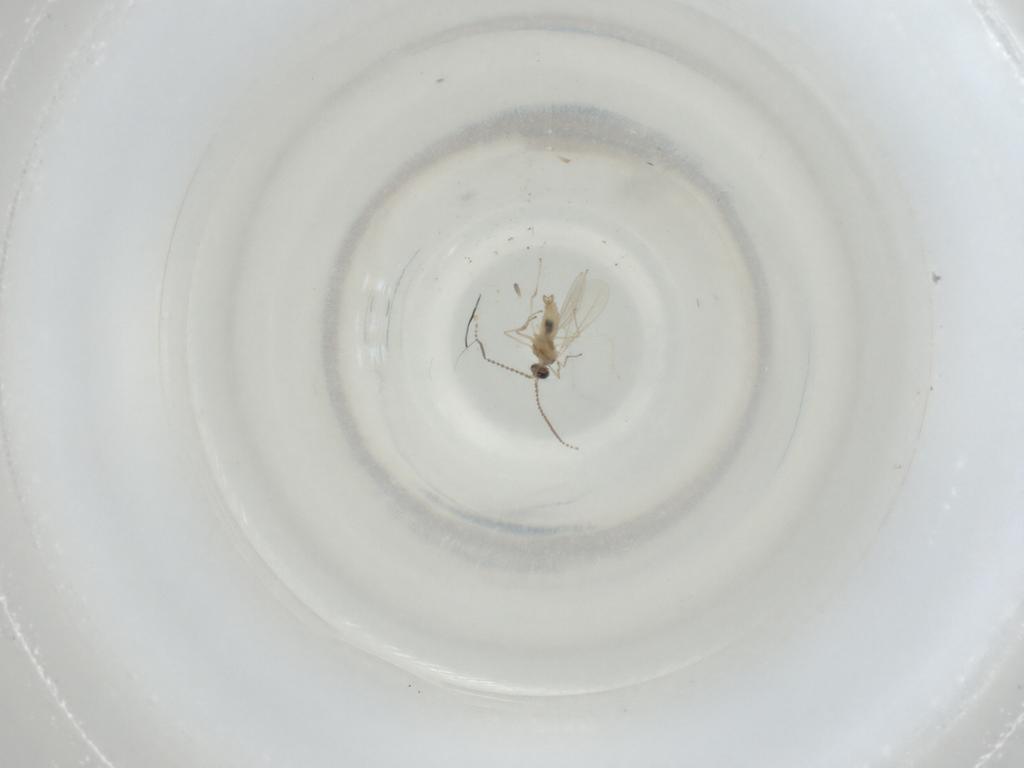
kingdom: Animalia
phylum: Arthropoda
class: Insecta
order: Diptera
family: Cecidomyiidae
